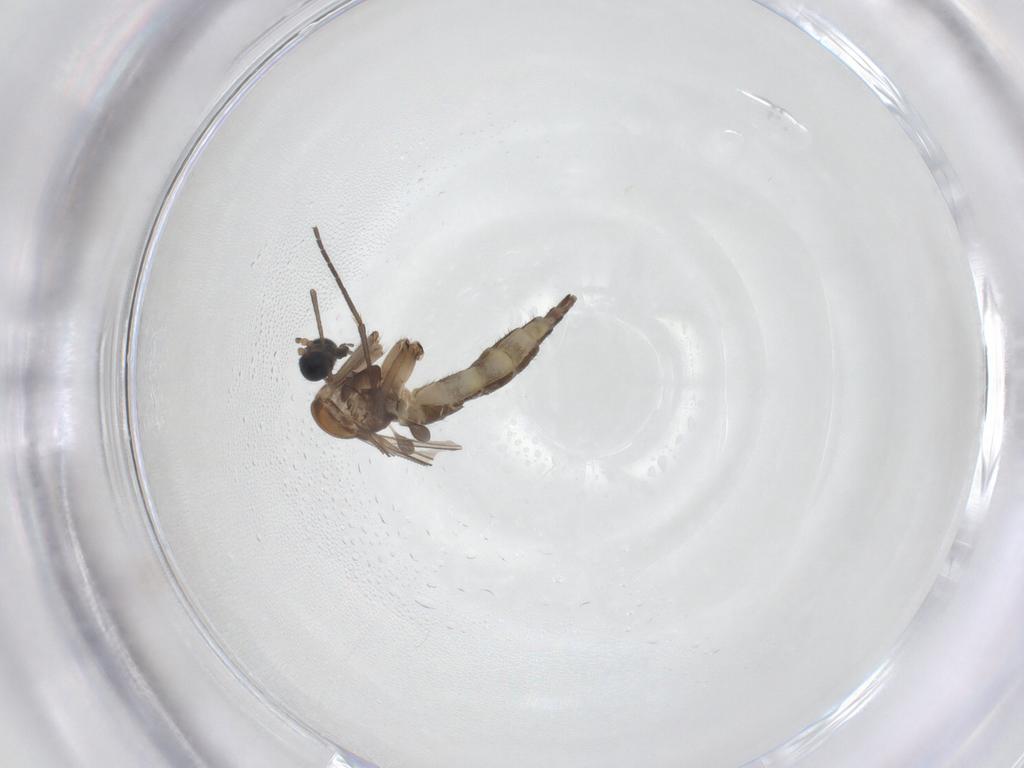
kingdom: Animalia
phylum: Arthropoda
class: Insecta
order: Diptera
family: Sciaridae
